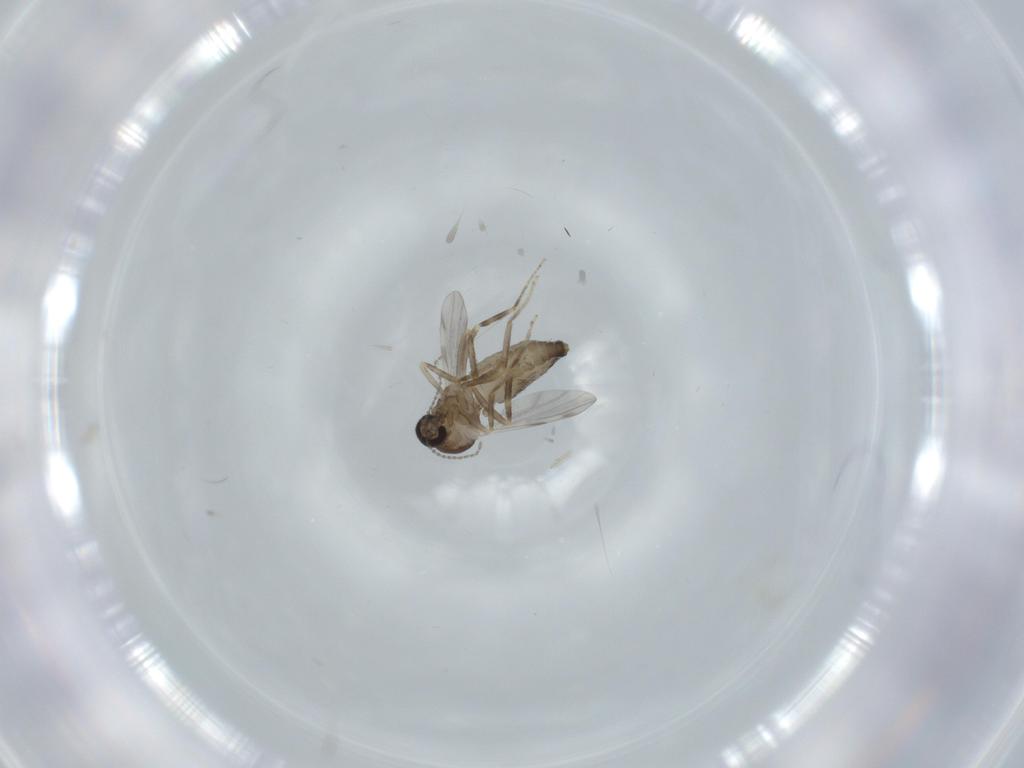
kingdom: Animalia
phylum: Arthropoda
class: Insecta
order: Diptera
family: Ceratopogonidae
